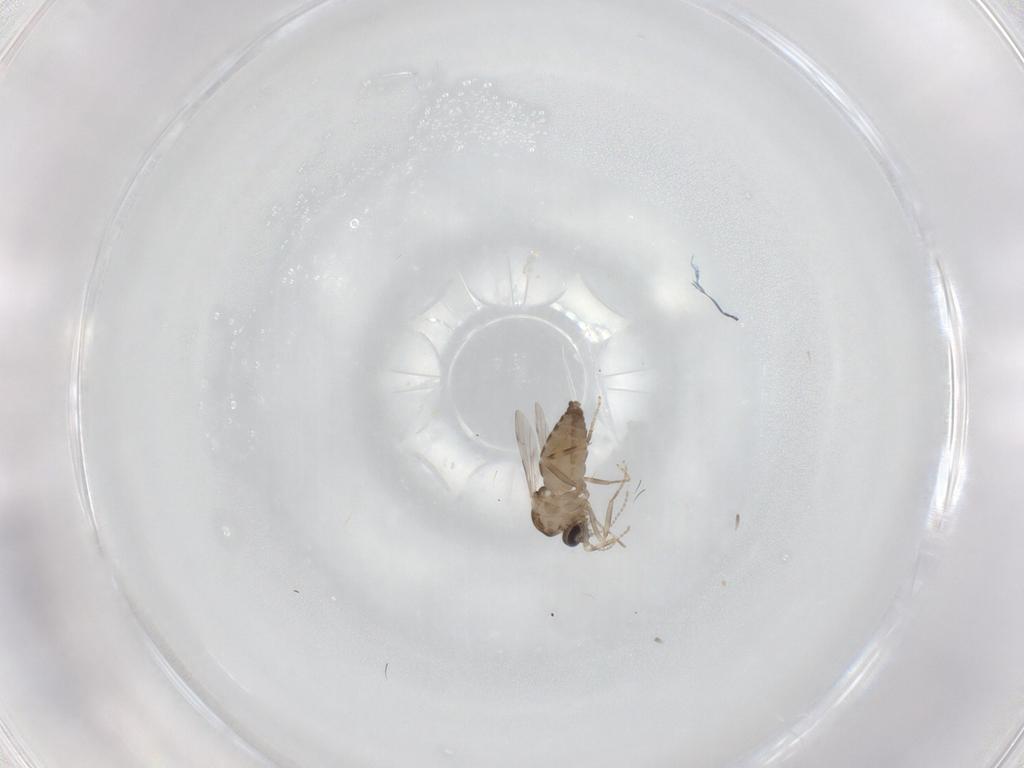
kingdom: Animalia
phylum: Arthropoda
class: Insecta
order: Diptera
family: Ceratopogonidae
